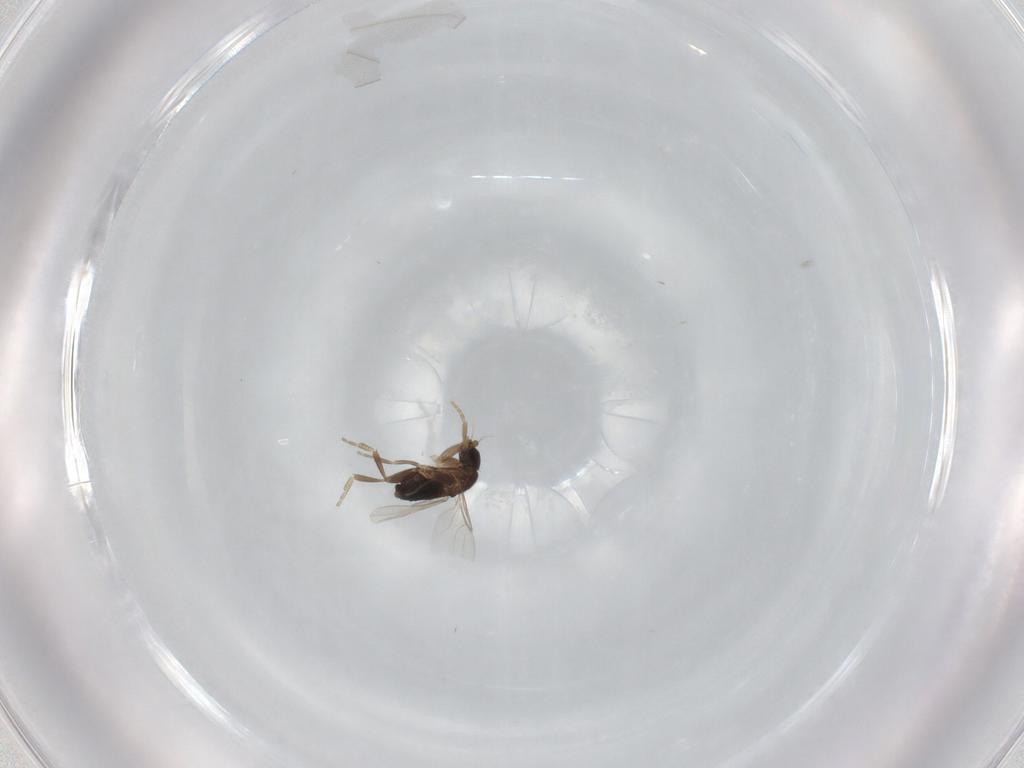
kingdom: Animalia
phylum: Arthropoda
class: Insecta
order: Diptera
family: Phoridae
